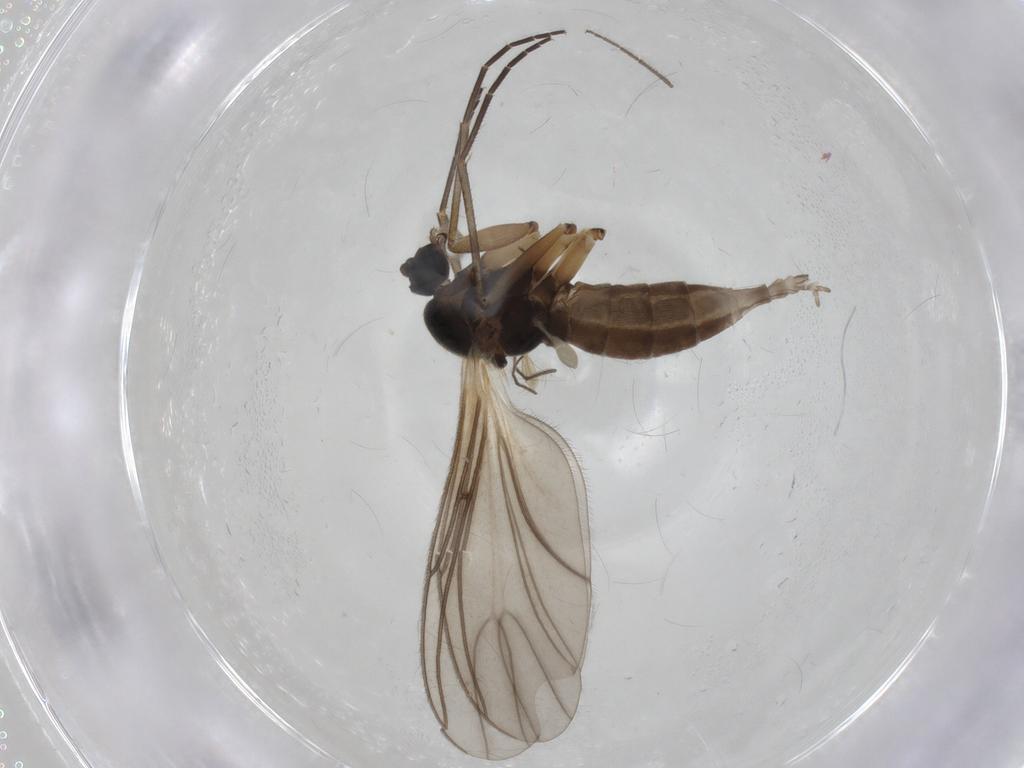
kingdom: Animalia
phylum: Arthropoda
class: Insecta
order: Diptera
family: Sciaridae
